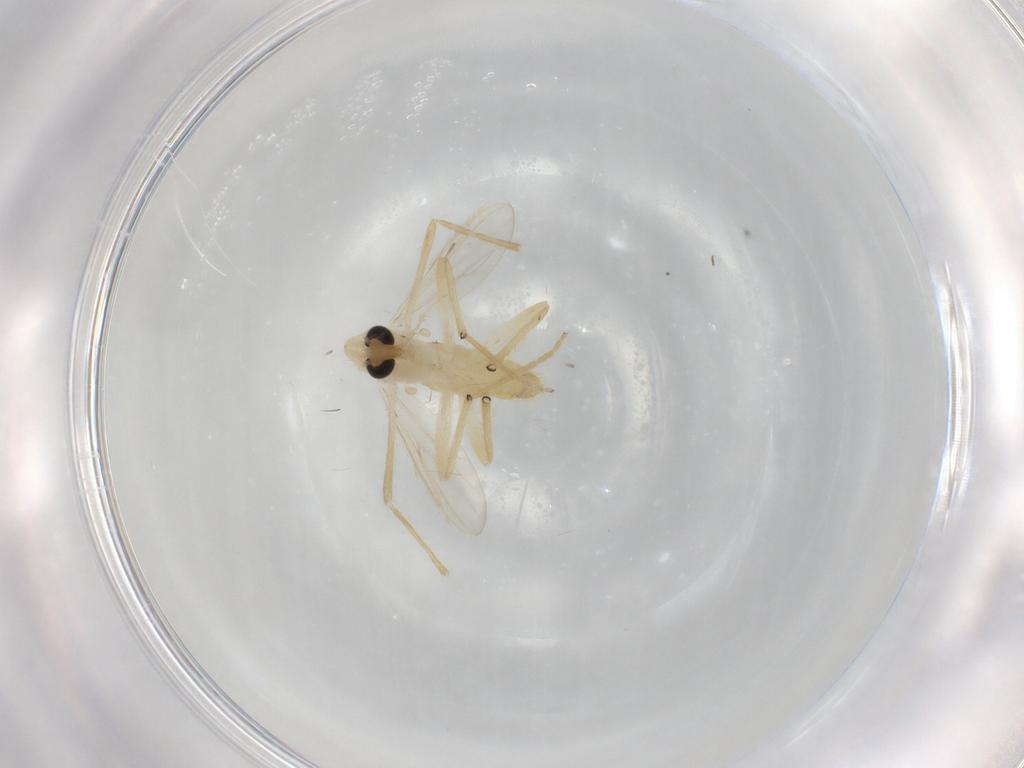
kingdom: Animalia
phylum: Arthropoda
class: Insecta
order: Diptera
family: Chironomidae
